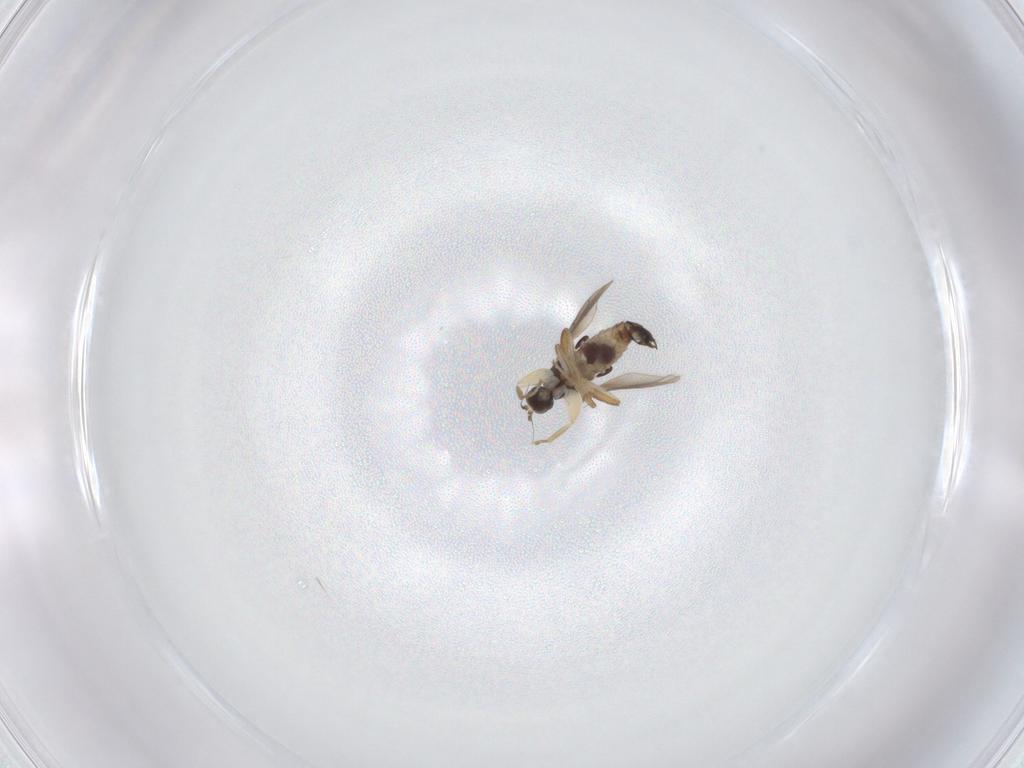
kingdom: Animalia
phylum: Arthropoda
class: Insecta
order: Diptera
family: Hybotidae
